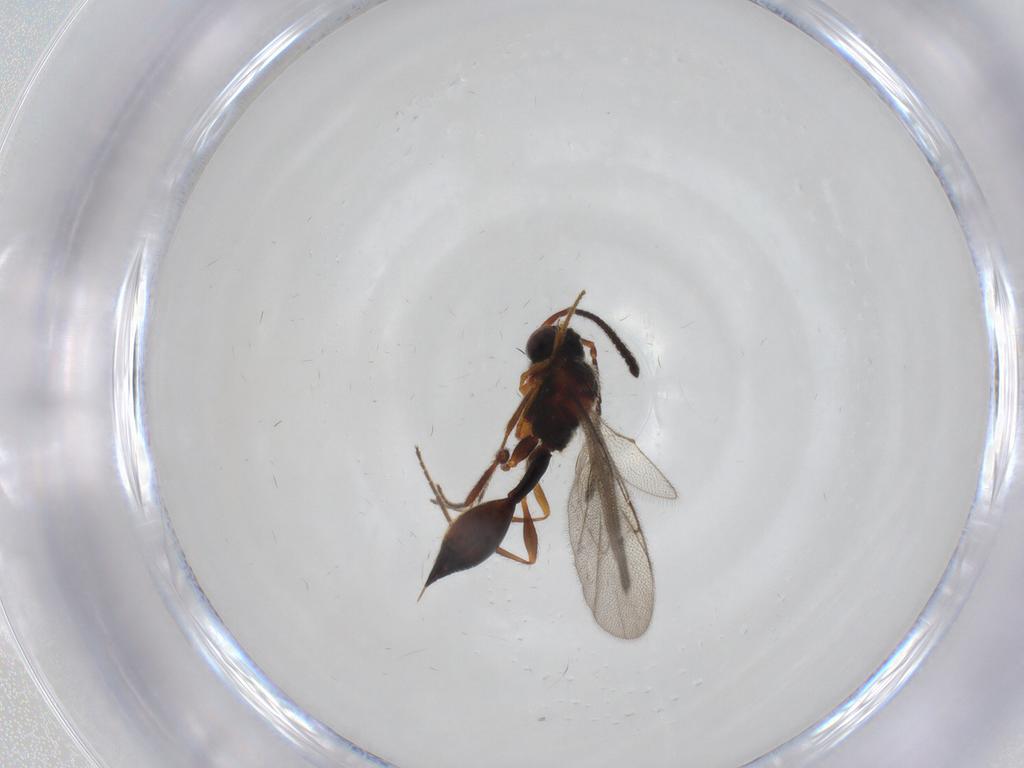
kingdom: Animalia
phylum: Arthropoda
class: Insecta
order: Hymenoptera
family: Diapriidae
